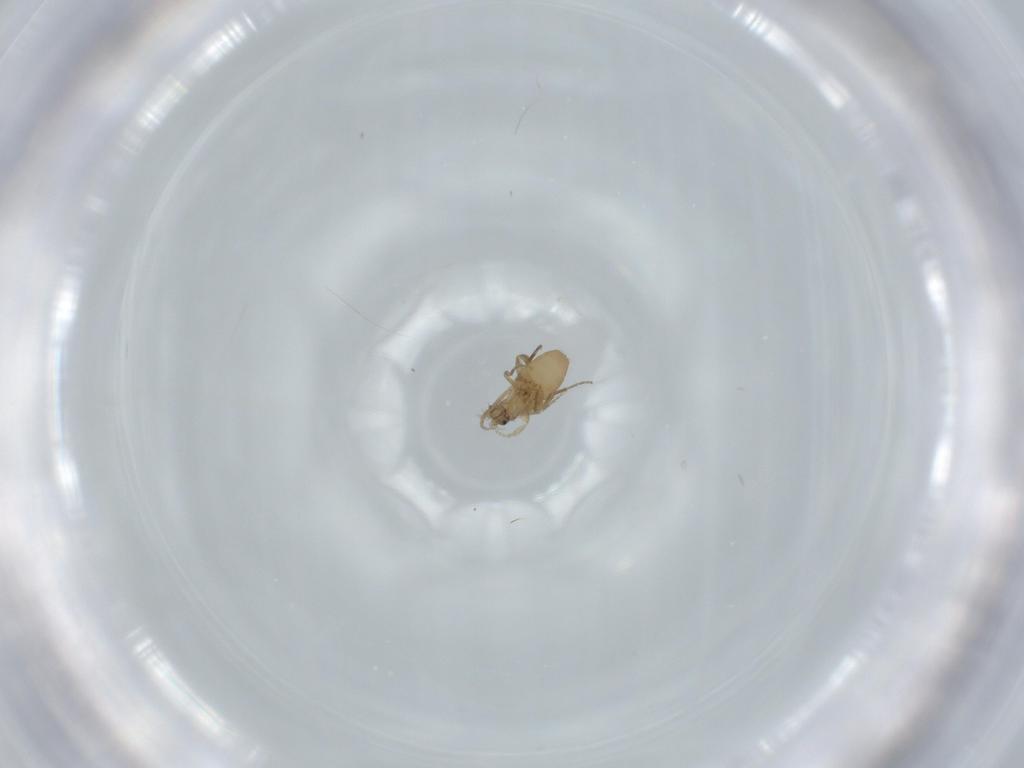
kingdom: Animalia
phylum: Arthropoda
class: Insecta
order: Diptera
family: Phoridae
